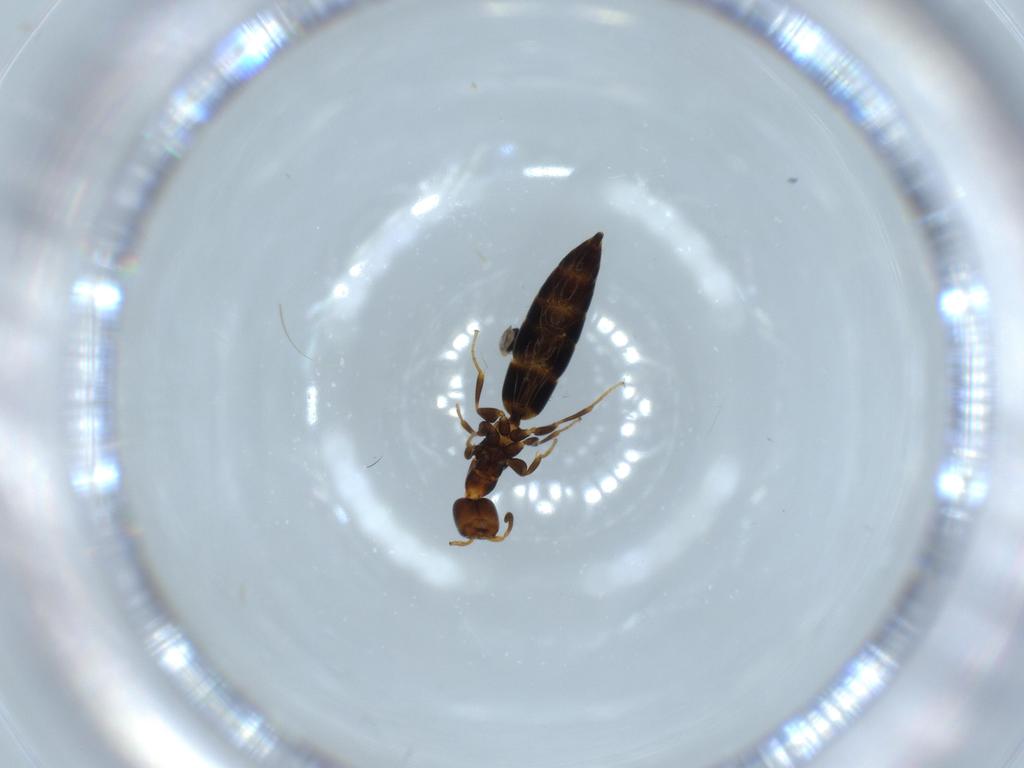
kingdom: Animalia
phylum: Arthropoda
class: Insecta
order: Hymenoptera
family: Bethylidae
